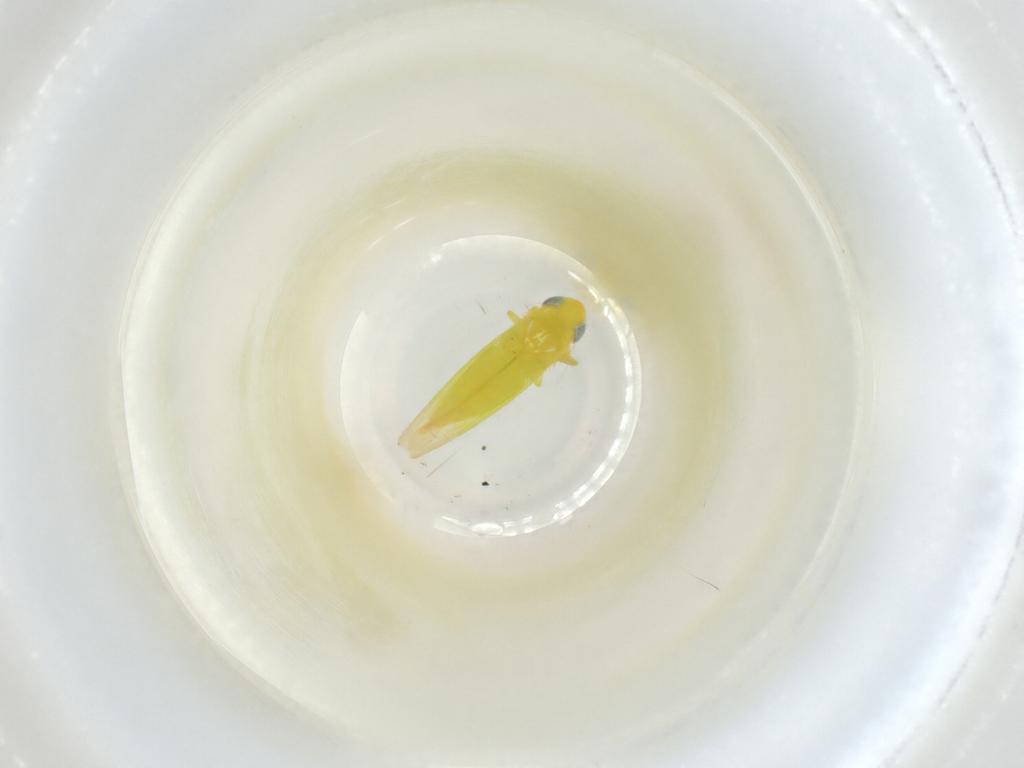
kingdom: Animalia
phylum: Arthropoda
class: Insecta
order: Hemiptera
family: Cicadellidae
